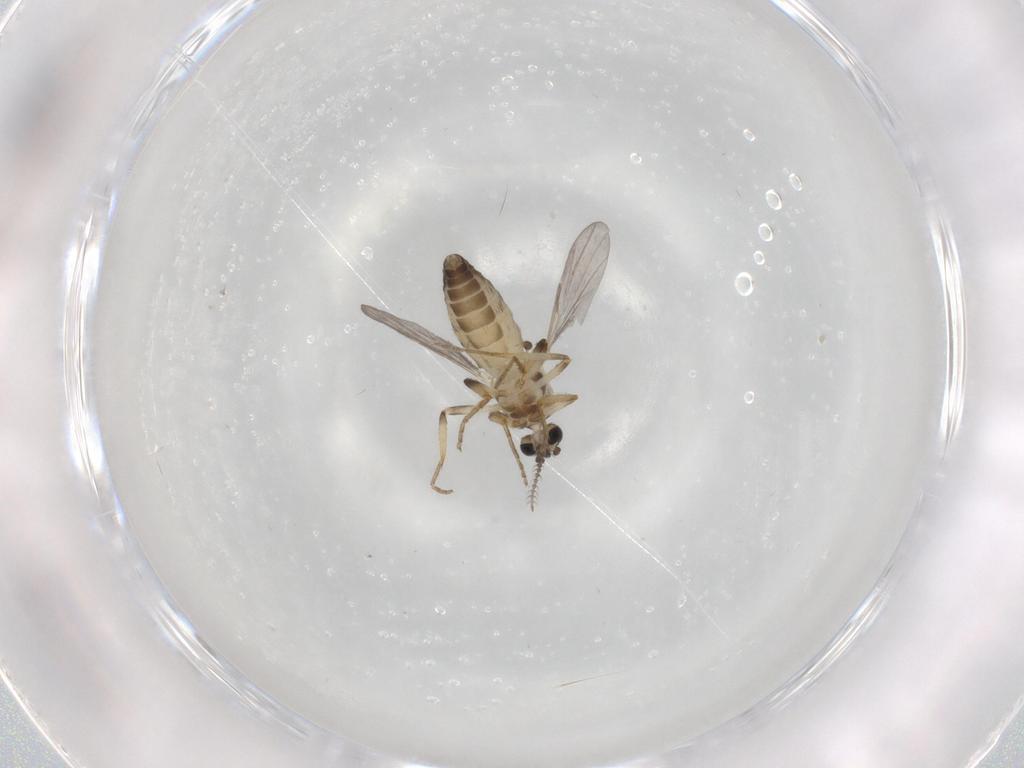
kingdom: Animalia
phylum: Arthropoda
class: Insecta
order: Diptera
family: Ceratopogonidae
